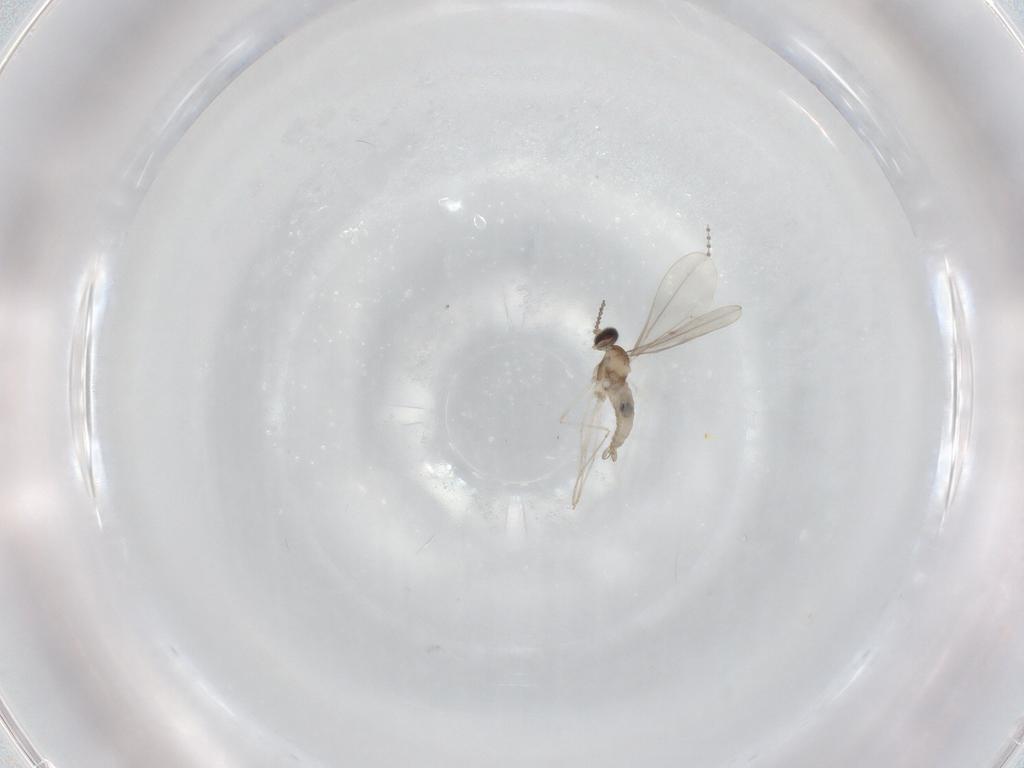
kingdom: Animalia
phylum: Arthropoda
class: Insecta
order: Diptera
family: Cecidomyiidae
